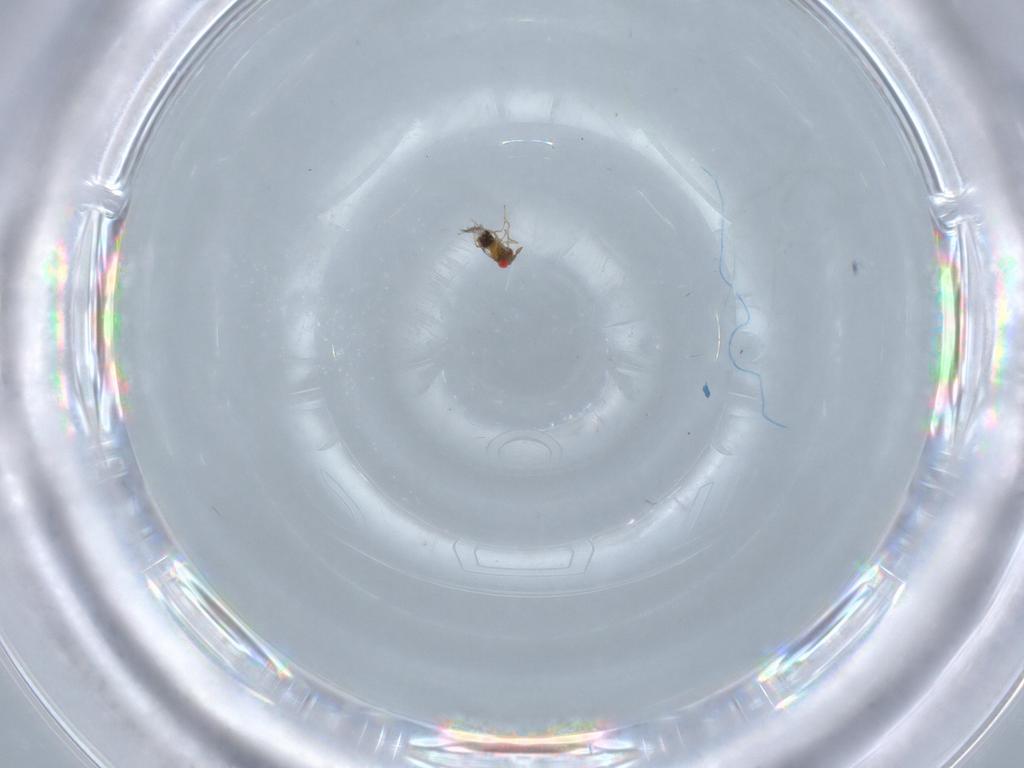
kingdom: Animalia
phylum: Arthropoda
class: Insecta
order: Hymenoptera
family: Trichogrammatidae
